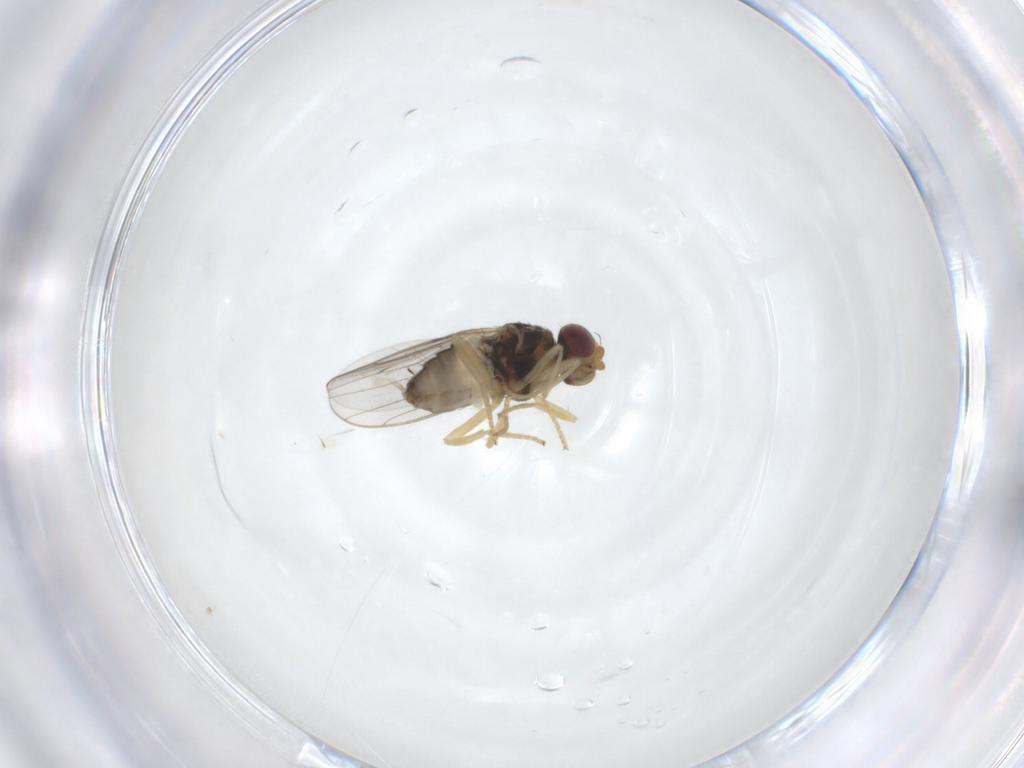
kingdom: Animalia
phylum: Arthropoda
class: Insecta
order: Diptera
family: Chloropidae
